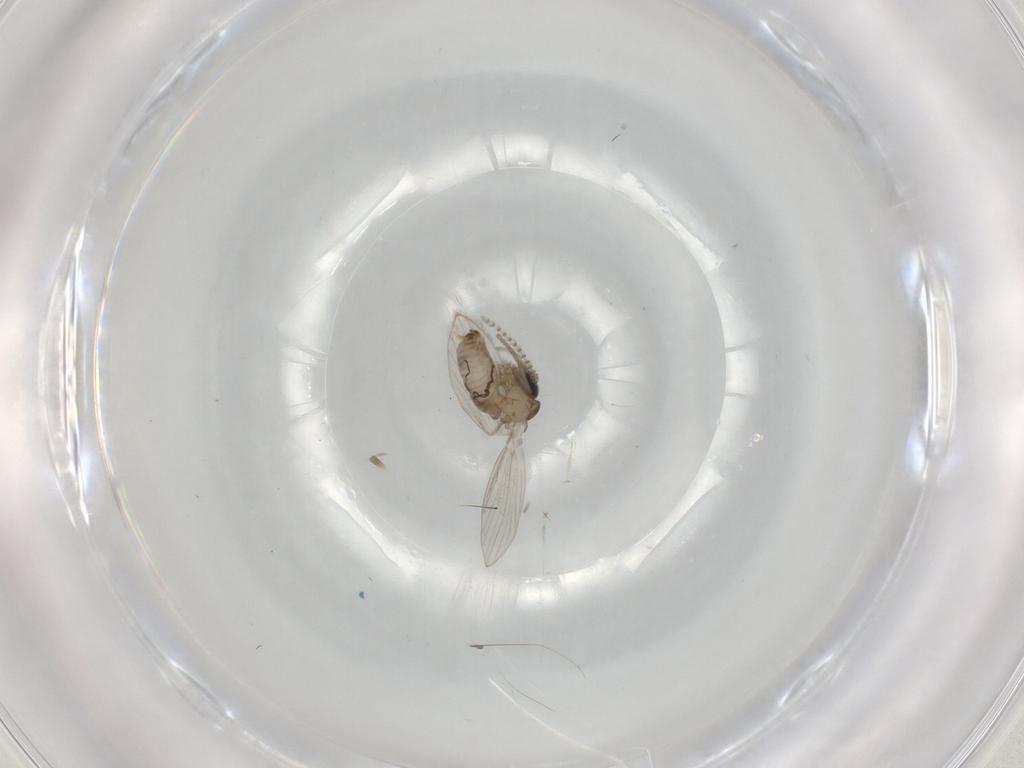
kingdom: Animalia
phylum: Arthropoda
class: Insecta
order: Diptera
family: Psychodidae
